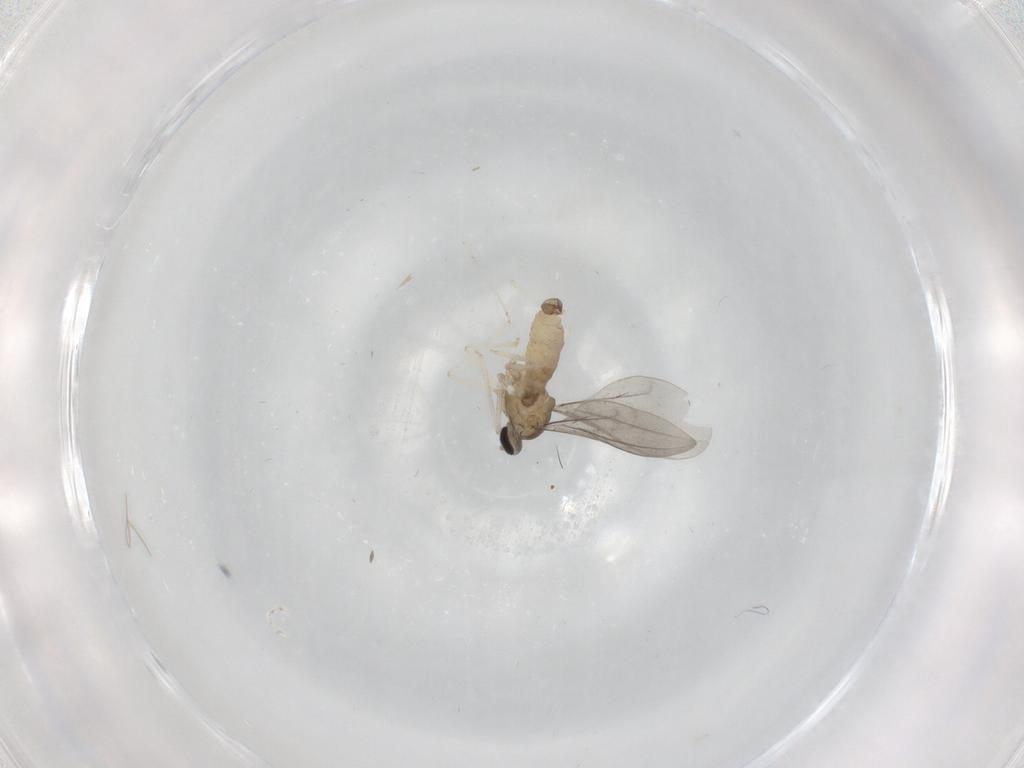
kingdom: Animalia
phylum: Arthropoda
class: Insecta
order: Diptera
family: Cecidomyiidae
